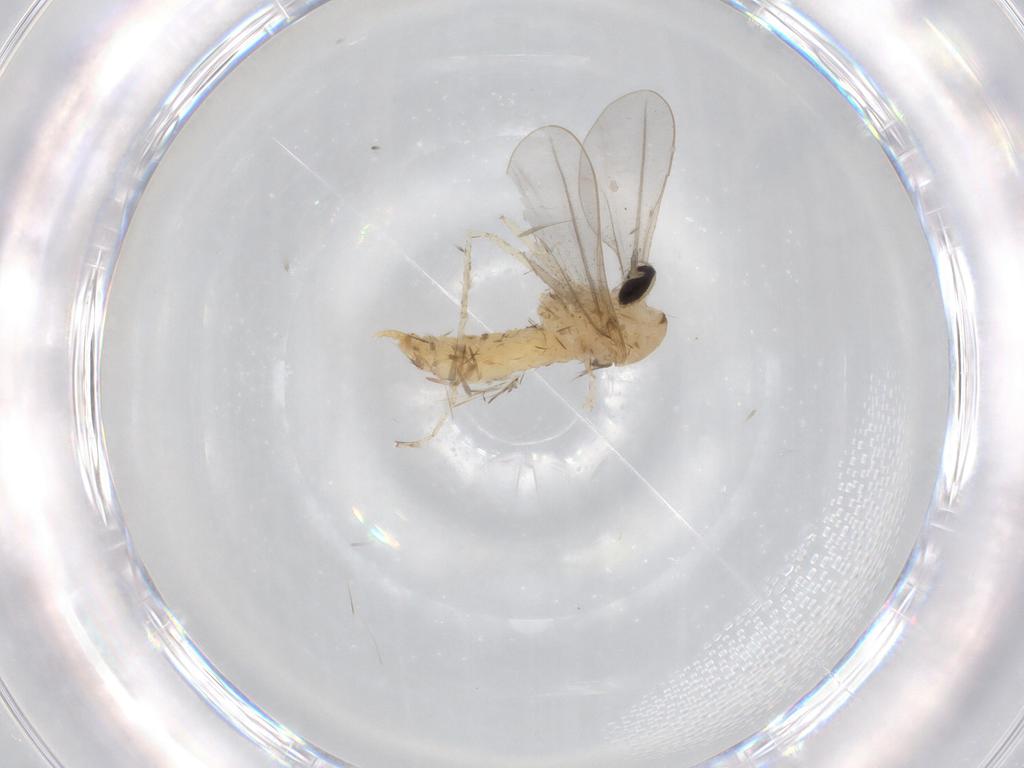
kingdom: Animalia
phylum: Arthropoda
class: Insecta
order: Diptera
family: Cecidomyiidae
